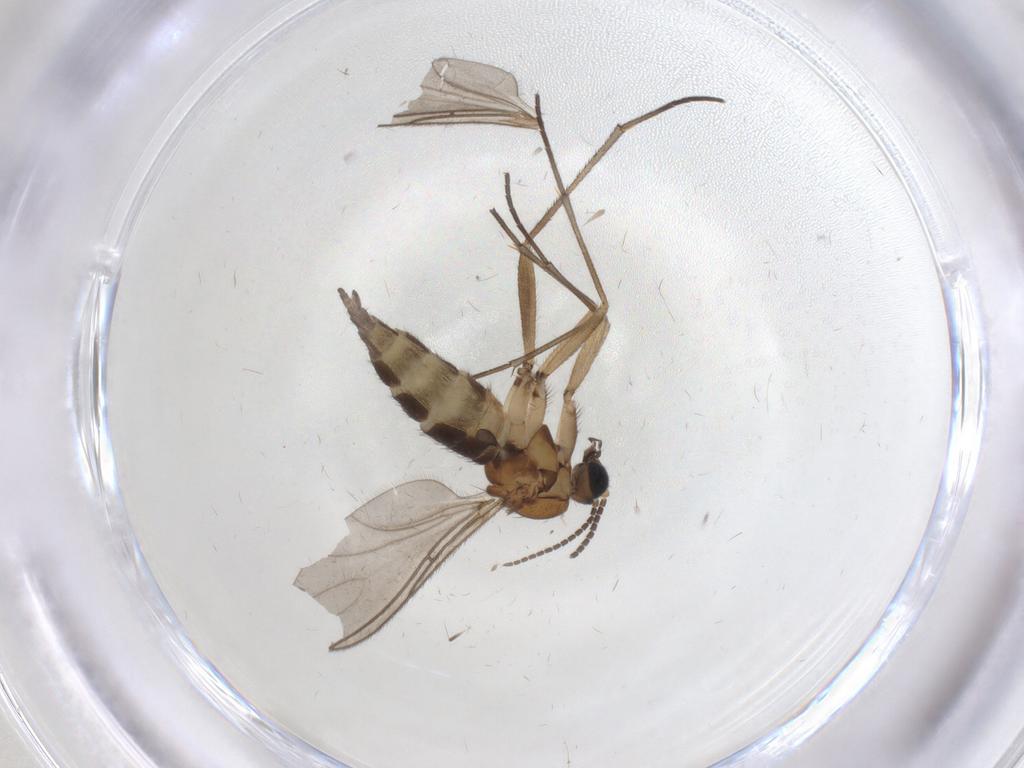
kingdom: Animalia
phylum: Arthropoda
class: Insecta
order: Diptera
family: Sciaridae
